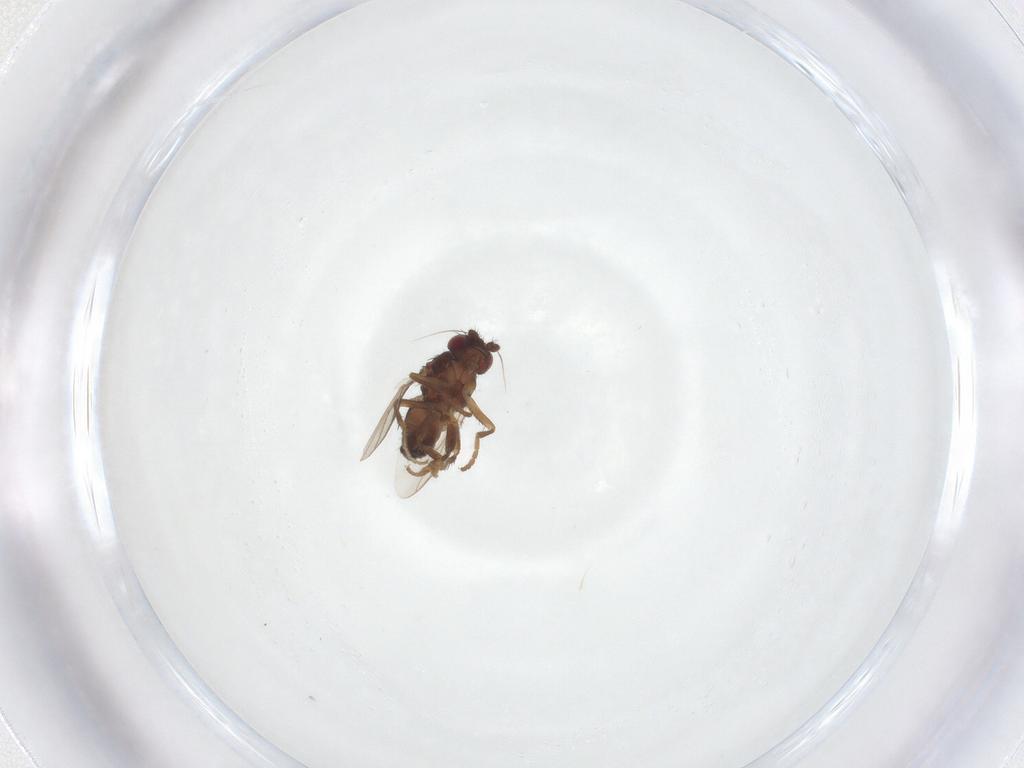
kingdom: Animalia
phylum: Arthropoda
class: Insecta
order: Diptera
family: Sphaeroceridae
